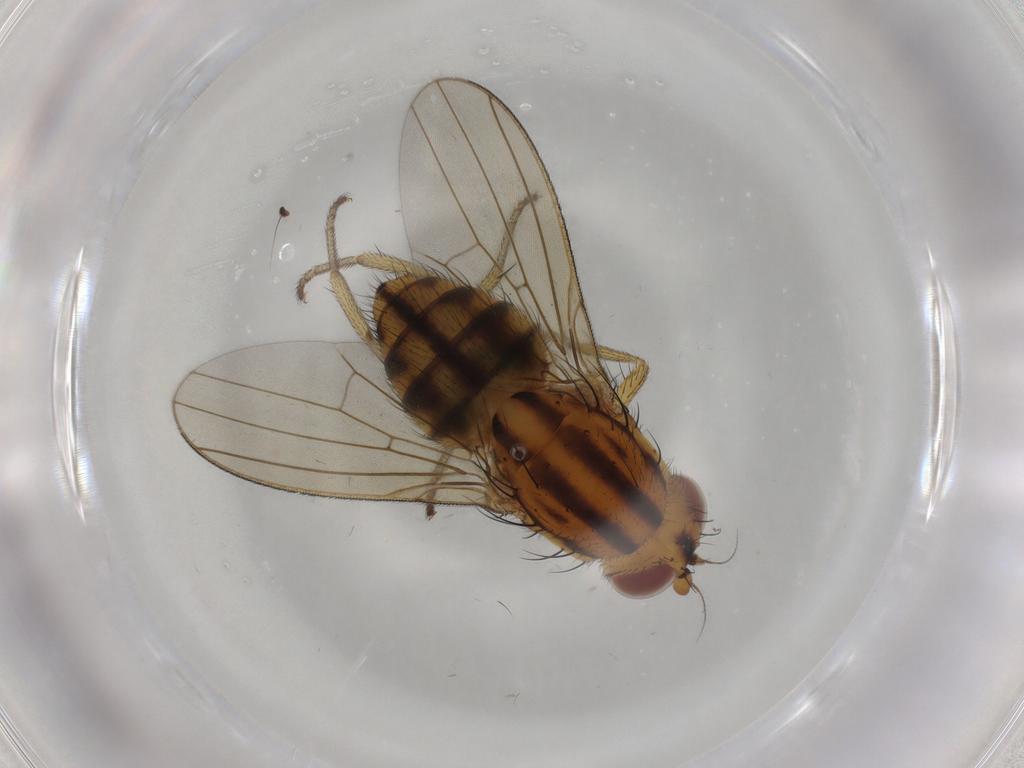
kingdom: Animalia
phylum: Arthropoda
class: Insecta
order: Diptera
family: Ceratopogonidae
